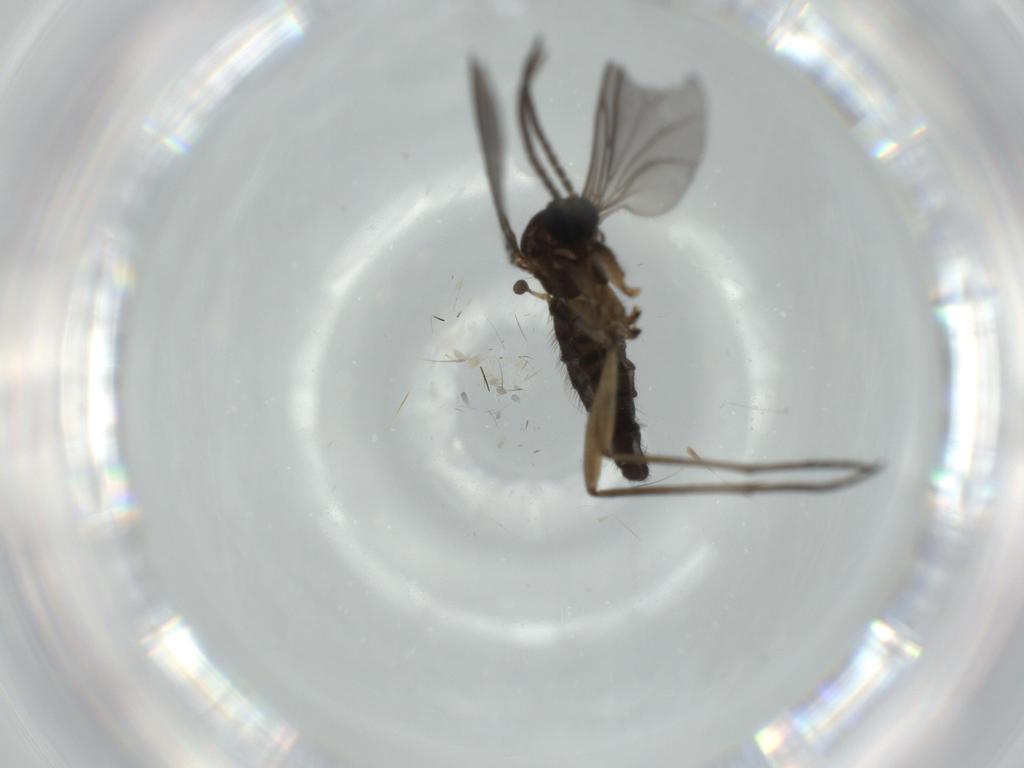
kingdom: Animalia
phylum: Arthropoda
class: Insecta
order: Diptera
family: Sciaridae
